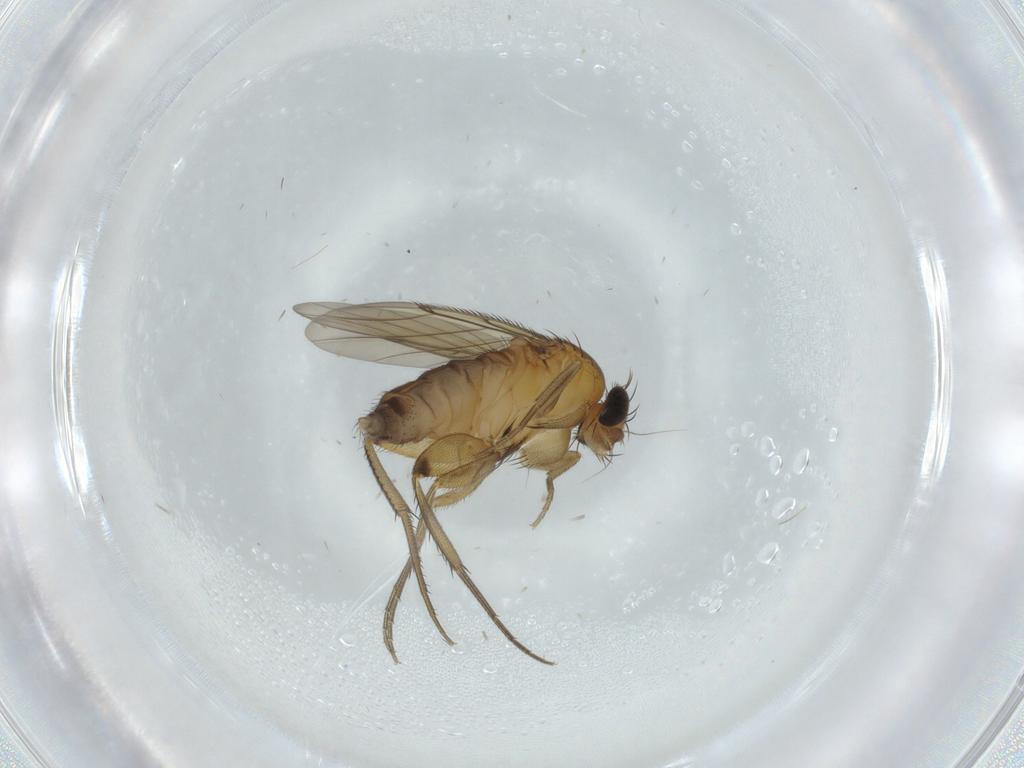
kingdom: Animalia
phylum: Arthropoda
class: Insecta
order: Diptera
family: Phoridae
